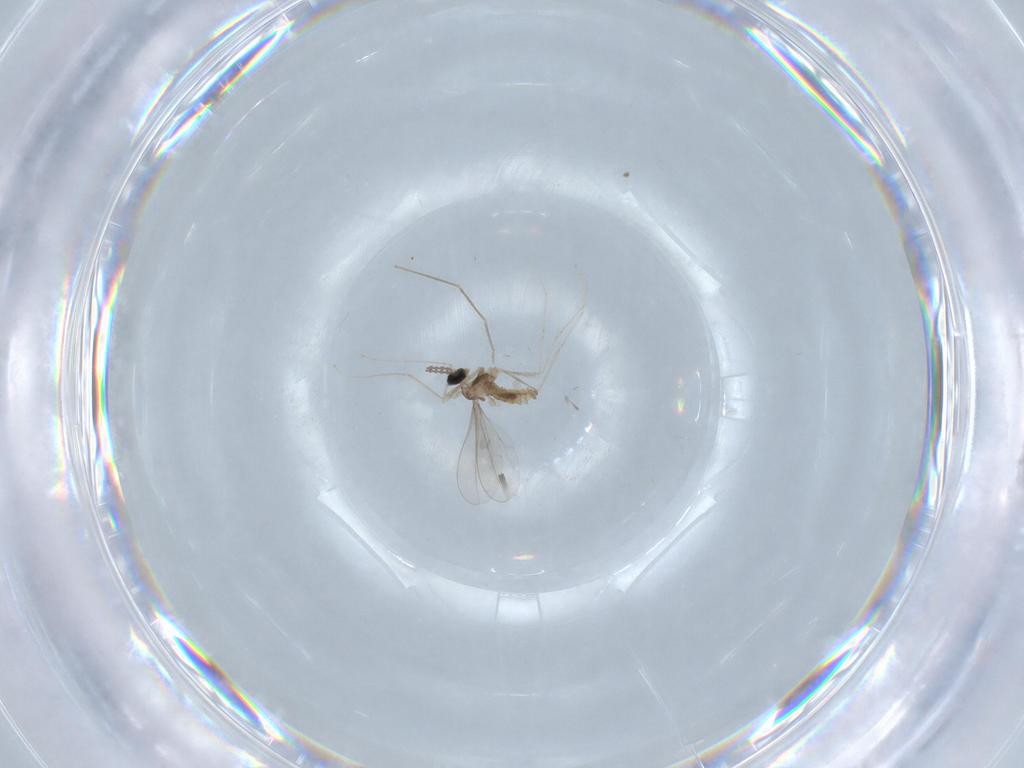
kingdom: Animalia
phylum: Arthropoda
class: Insecta
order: Diptera
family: Cecidomyiidae
